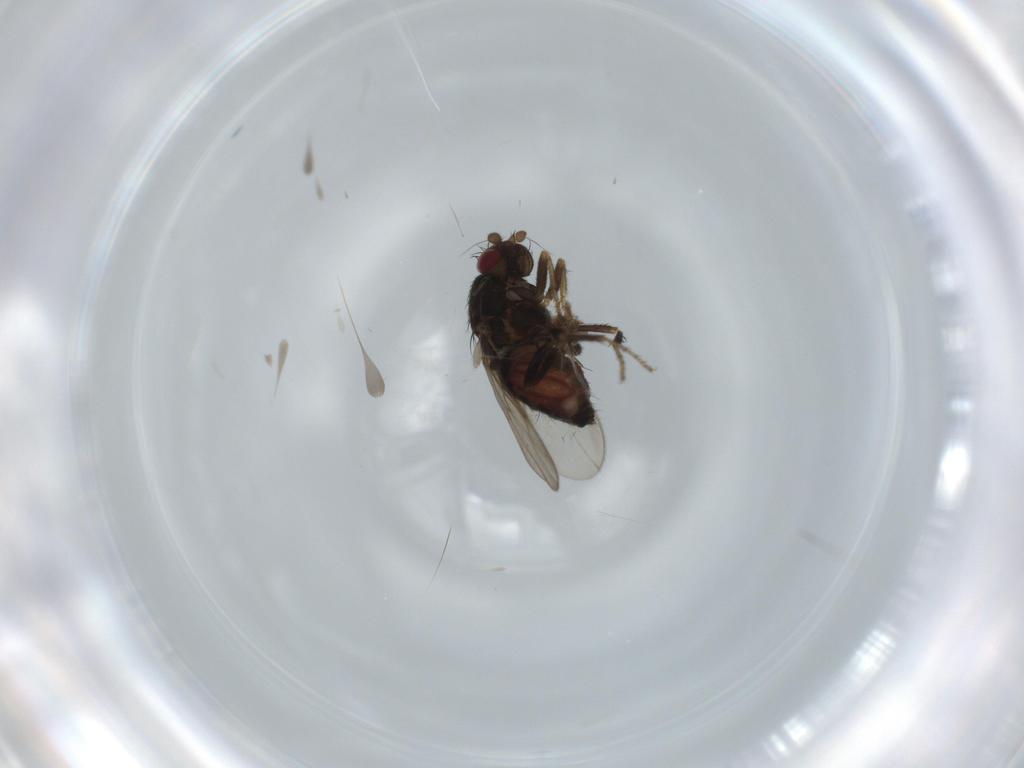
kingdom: Animalia
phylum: Arthropoda
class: Insecta
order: Diptera
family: Sphaeroceridae
